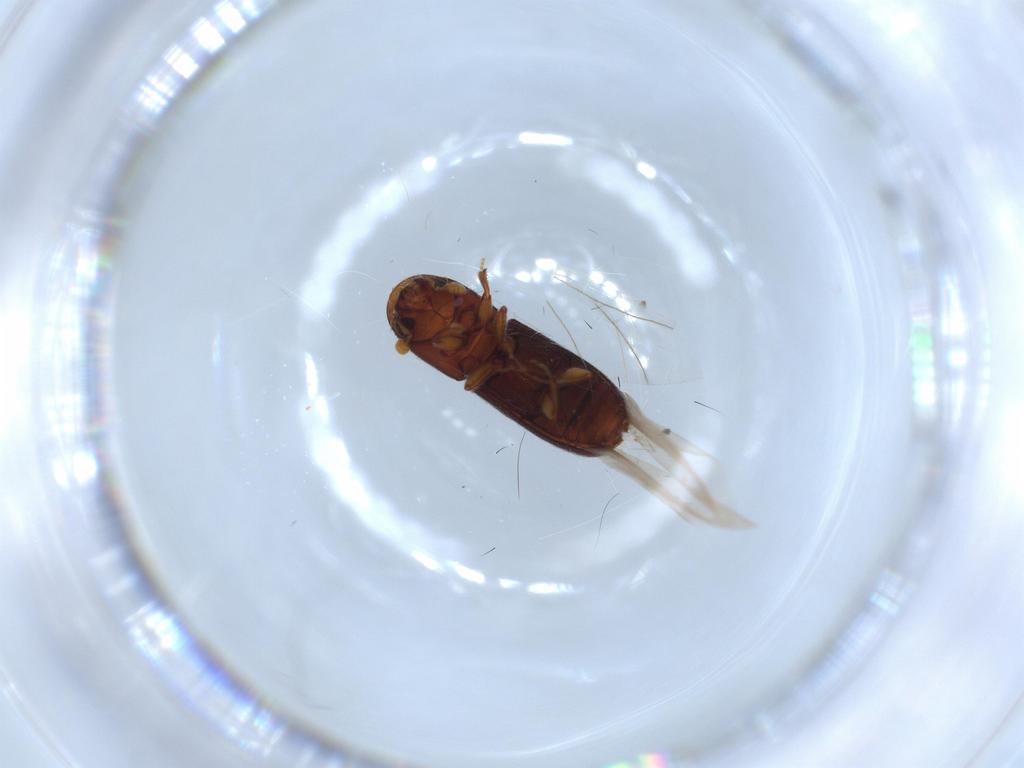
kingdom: Animalia
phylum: Arthropoda
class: Insecta
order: Coleoptera
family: Curculionidae
